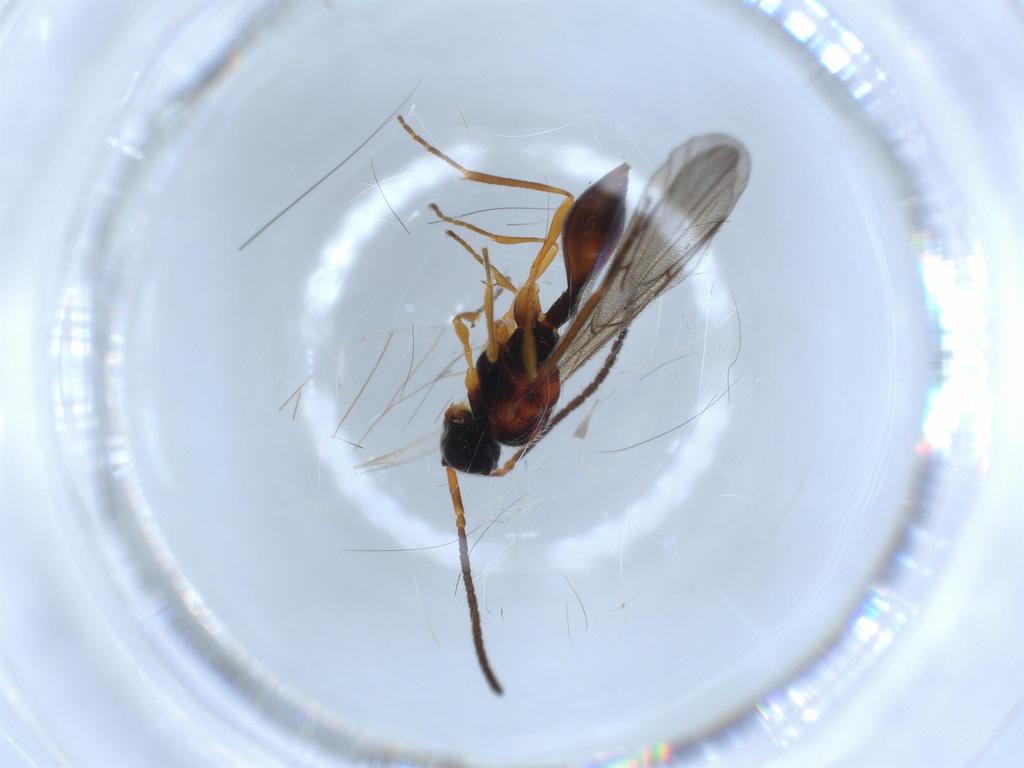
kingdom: Animalia
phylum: Arthropoda
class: Insecta
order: Hymenoptera
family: Diapriidae
